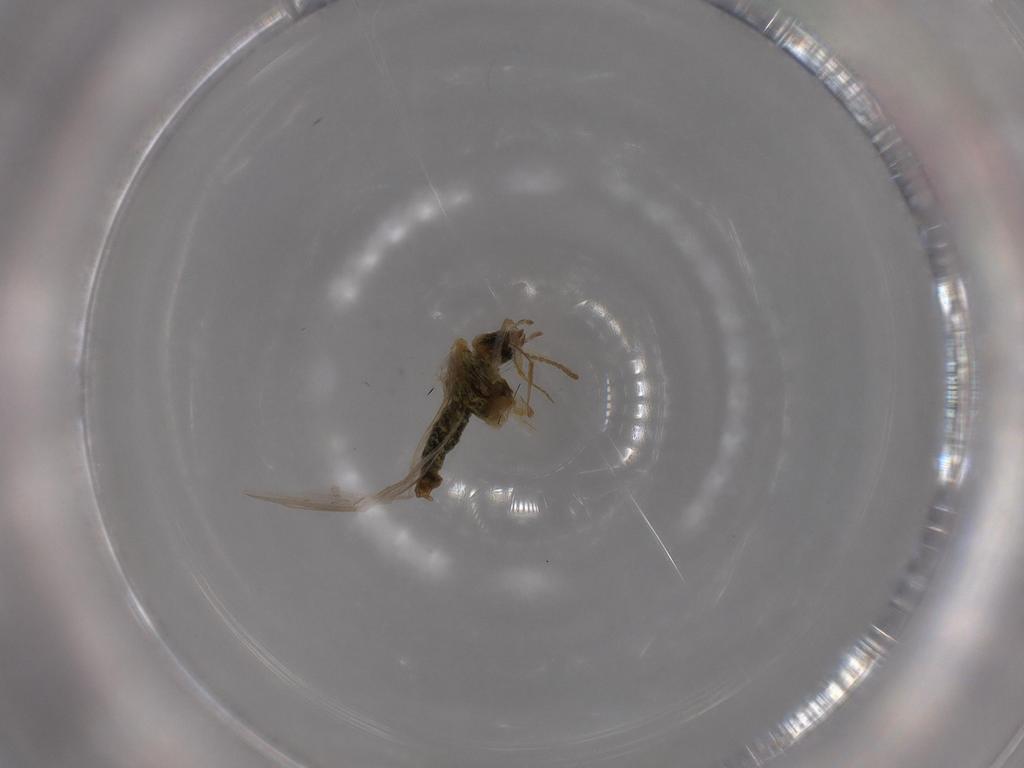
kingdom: Animalia
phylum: Arthropoda
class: Insecta
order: Neuroptera
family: Coniopterygidae
